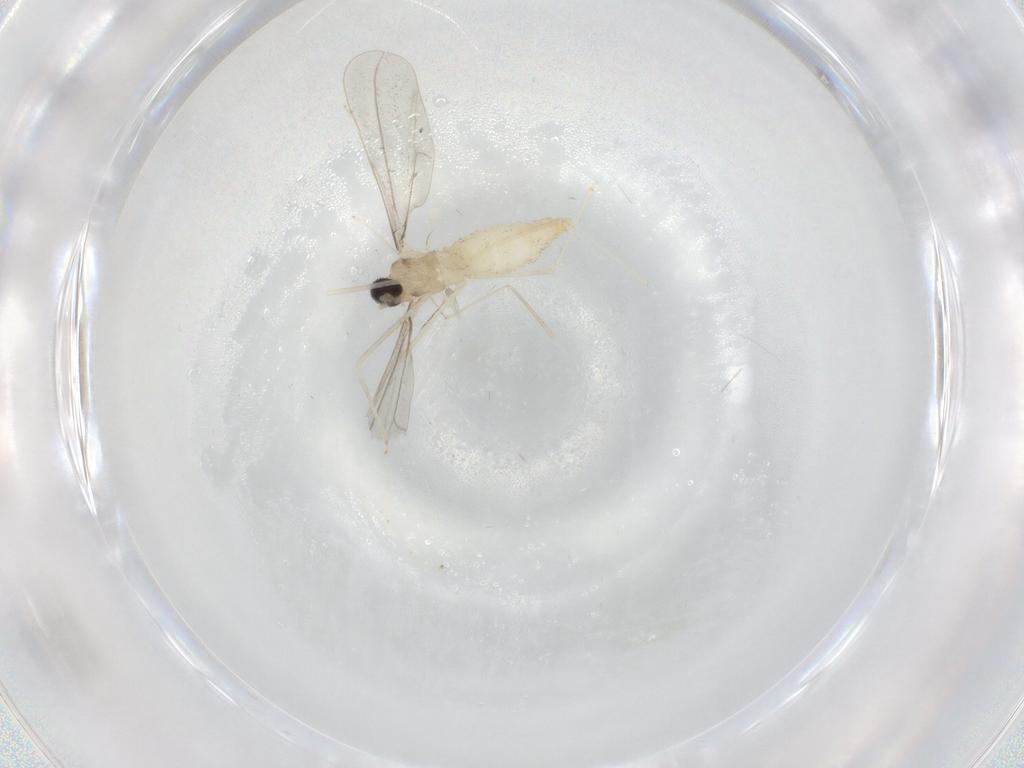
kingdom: Animalia
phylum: Arthropoda
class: Insecta
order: Diptera
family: Cecidomyiidae
